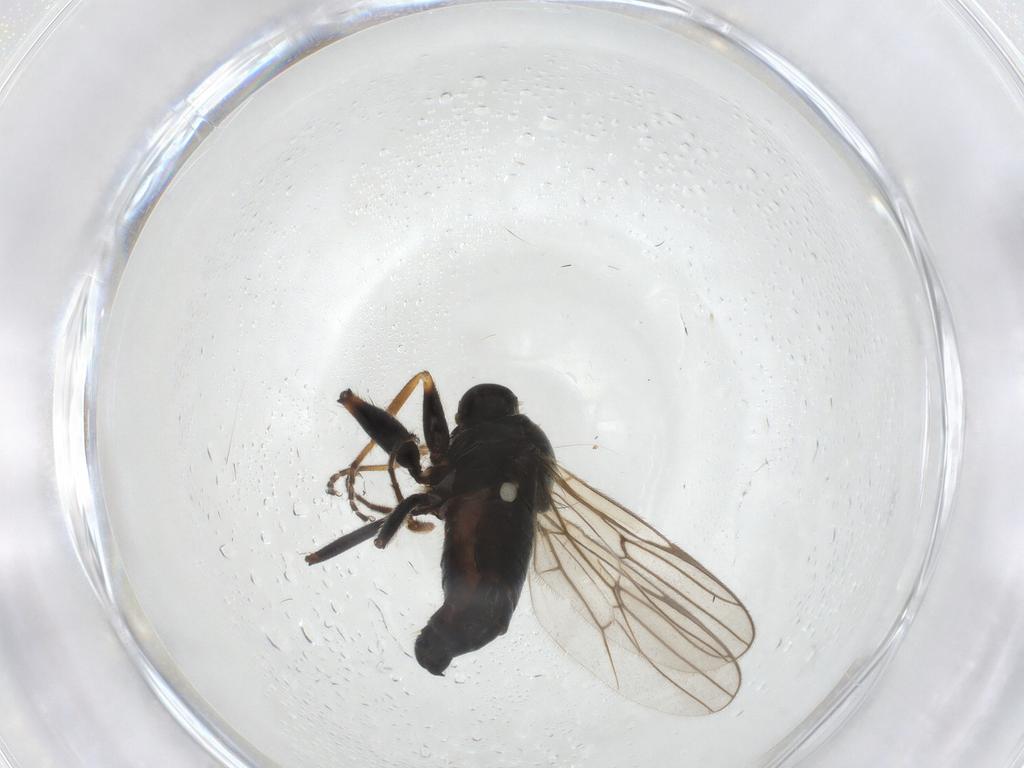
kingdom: Animalia
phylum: Arthropoda
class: Insecta
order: Diptera
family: Hybotidae
